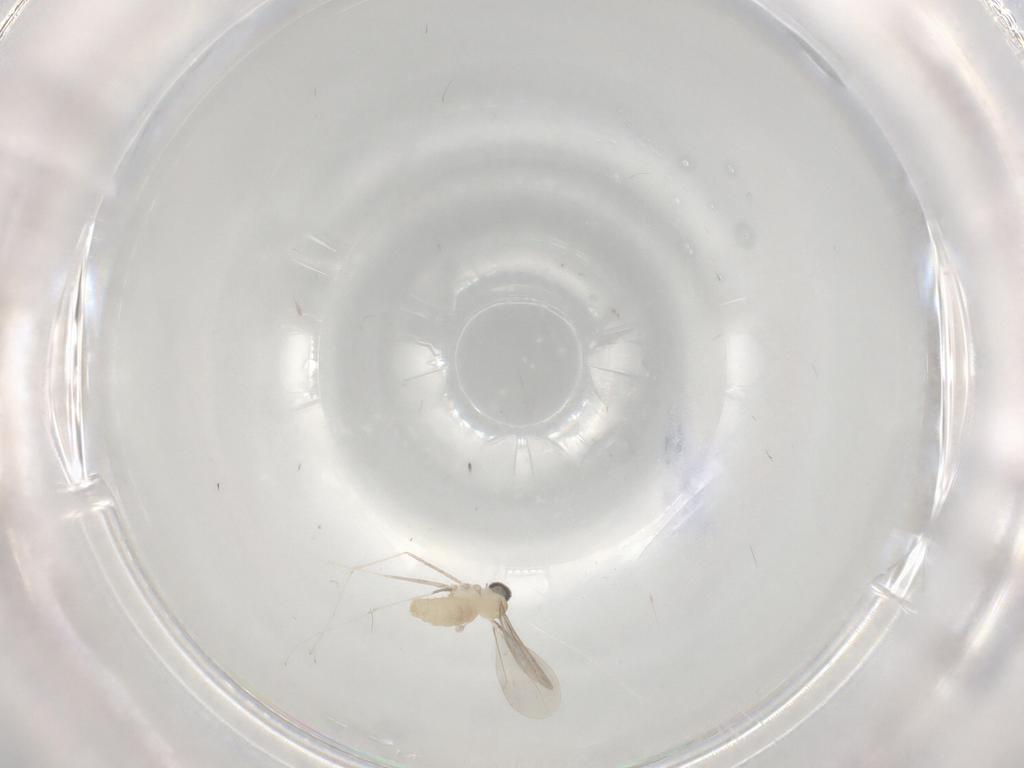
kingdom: Animalia
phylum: Arthropoda
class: Insecta
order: Diptera
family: Cecidomyiidae
